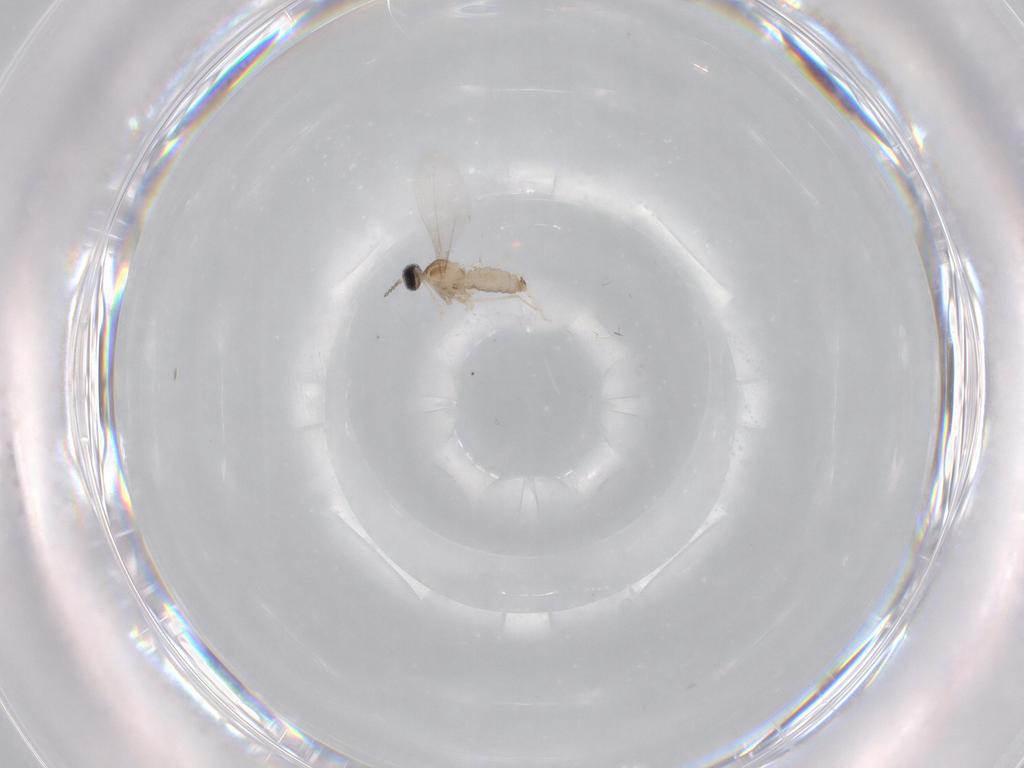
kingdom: Animalia
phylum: Arthropoda
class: Insecta
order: Diptera
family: Cecidomyiidae
